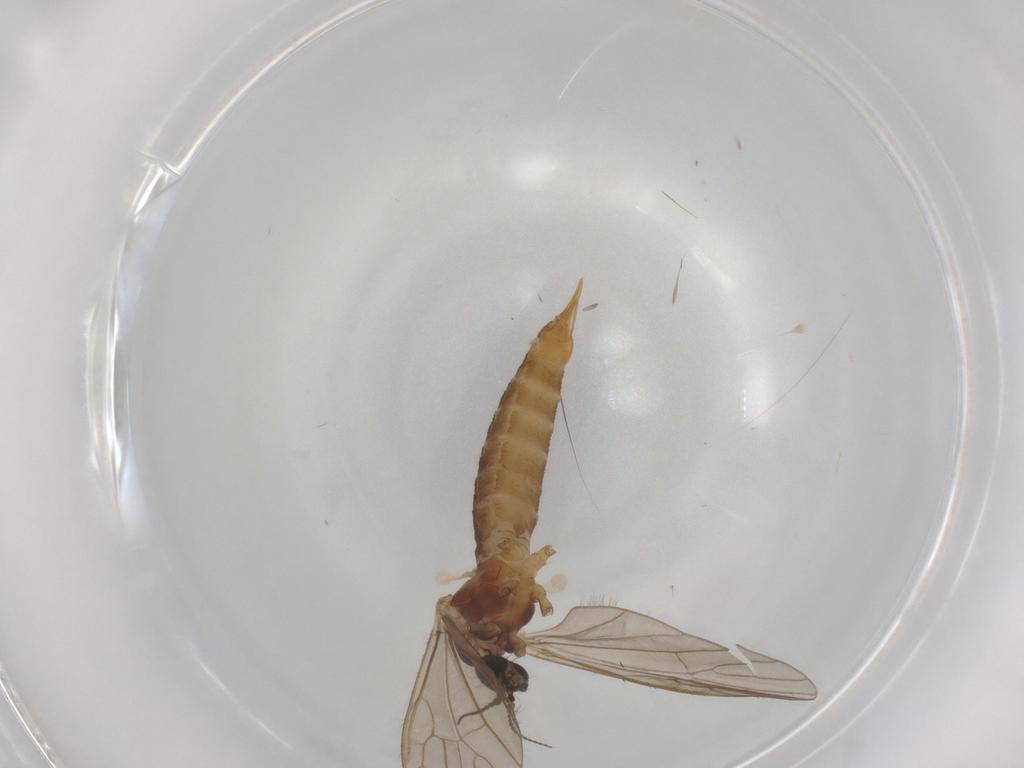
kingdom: Animalia
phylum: Arthropoda
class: Insecta
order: Diptera
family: Limoniidae
